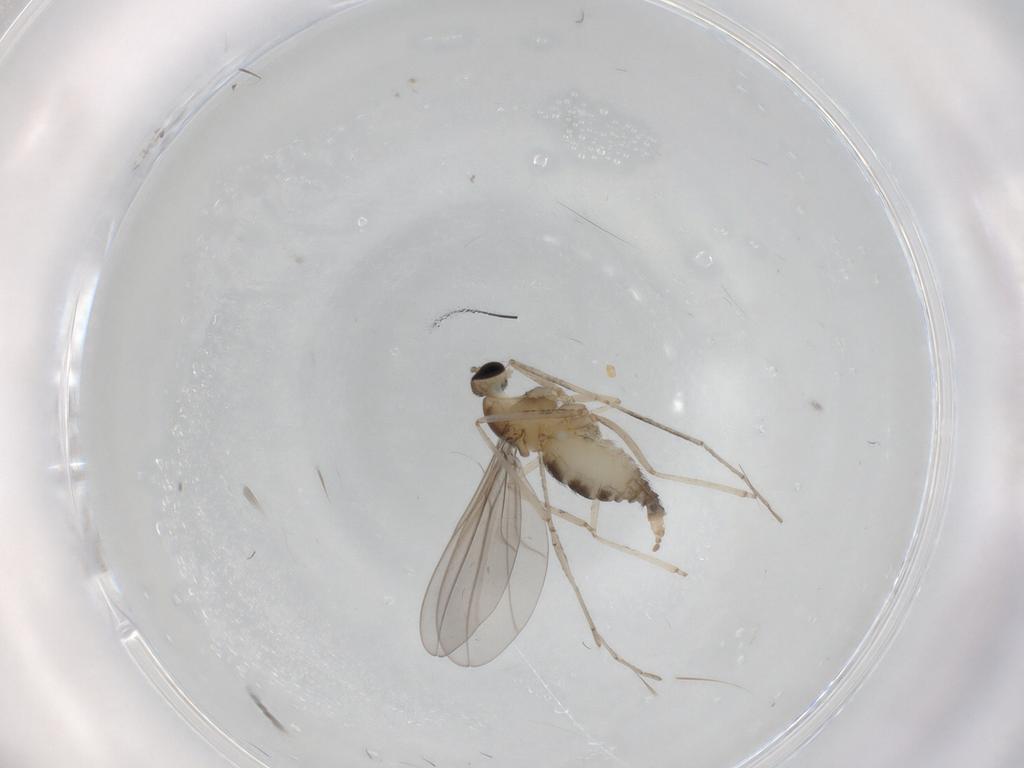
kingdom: Animalia
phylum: Arthropoda
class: Insecta
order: Diptera
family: Cecidomyiidae
